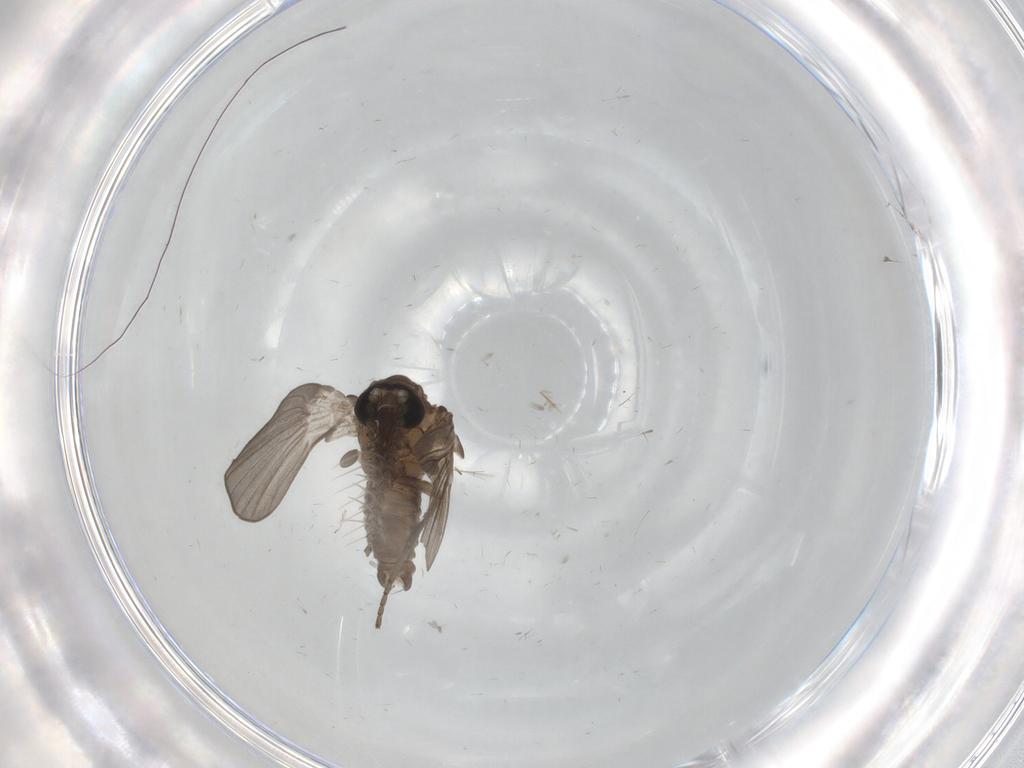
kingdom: Animalia
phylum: Arthropoda
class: Insecta
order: Diptera
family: Psychodidae
